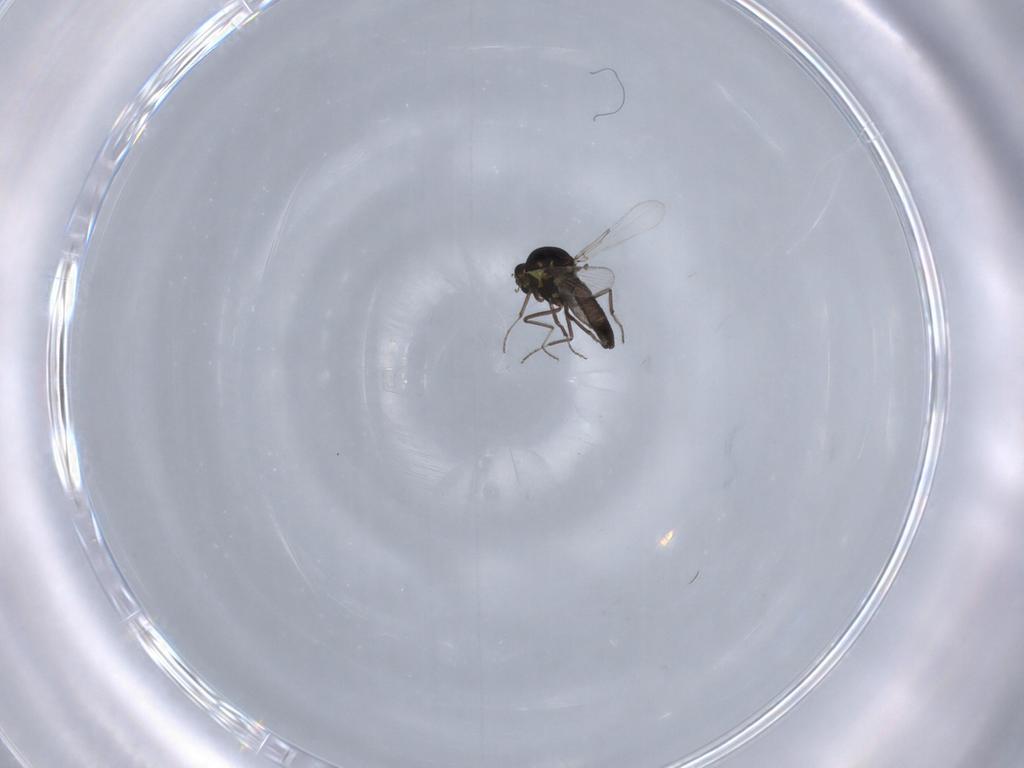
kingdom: Animalia
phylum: Arthropoda
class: Insecta
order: Diptera
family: Ceratopogonidae
